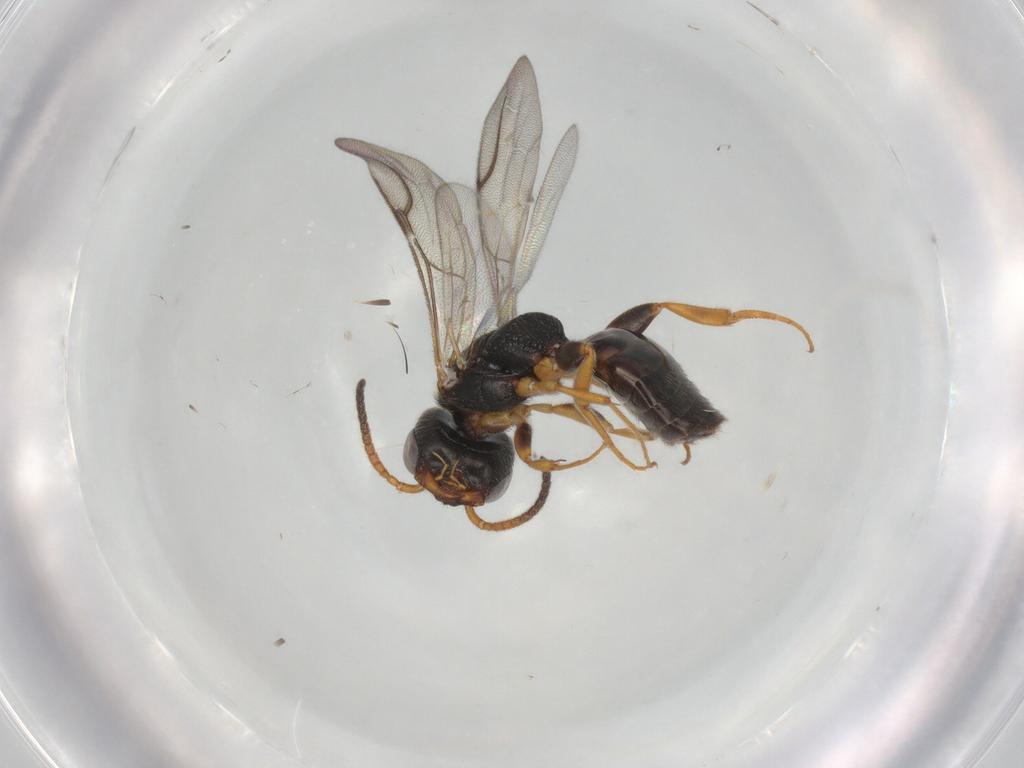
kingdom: Animalia
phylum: Arthropoda
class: Insecta
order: Hymenoptera
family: Bethylidae
